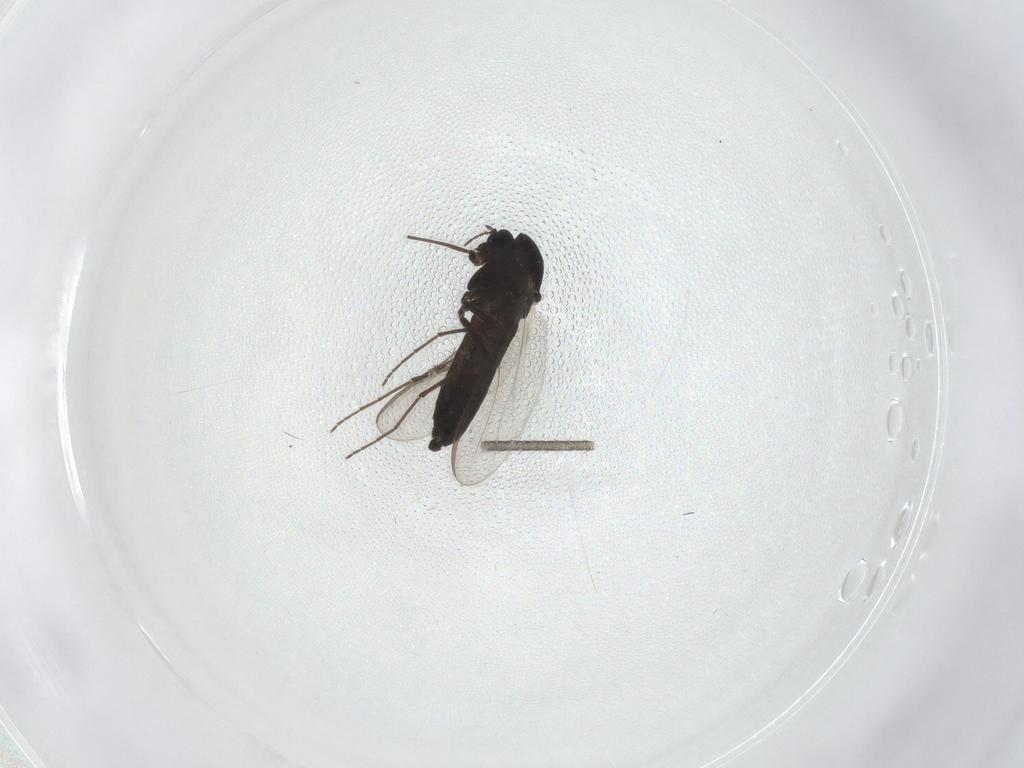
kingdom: Animalia
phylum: Arthropoda
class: Insecta
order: Diptera
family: Chironomidae
